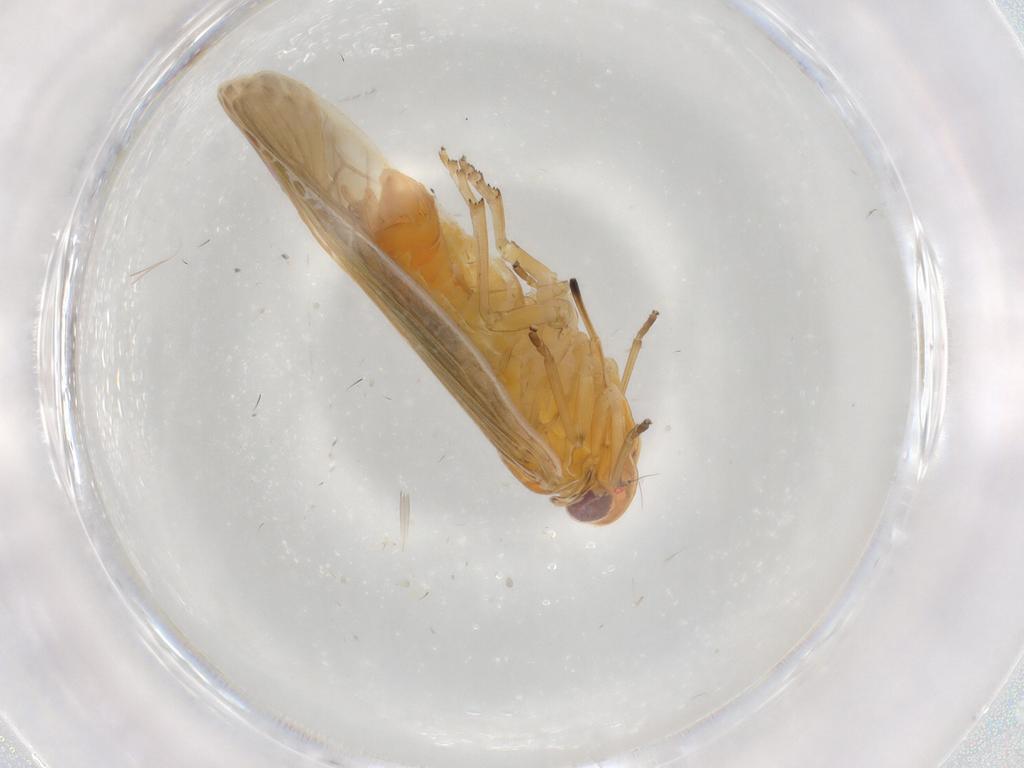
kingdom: Animalia
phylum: Arthropoda
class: Insecta
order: Hemiptera
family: Achilidae
